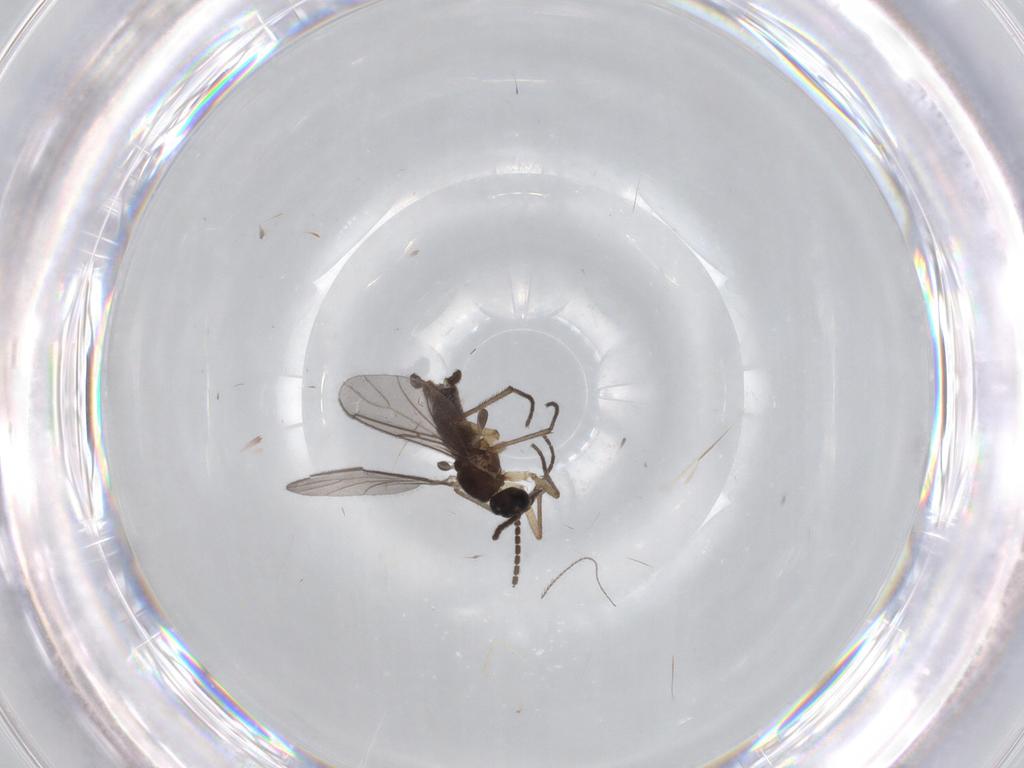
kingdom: Animalia
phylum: Arthropoda
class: Insecta
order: Diptera
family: Sciaridae
